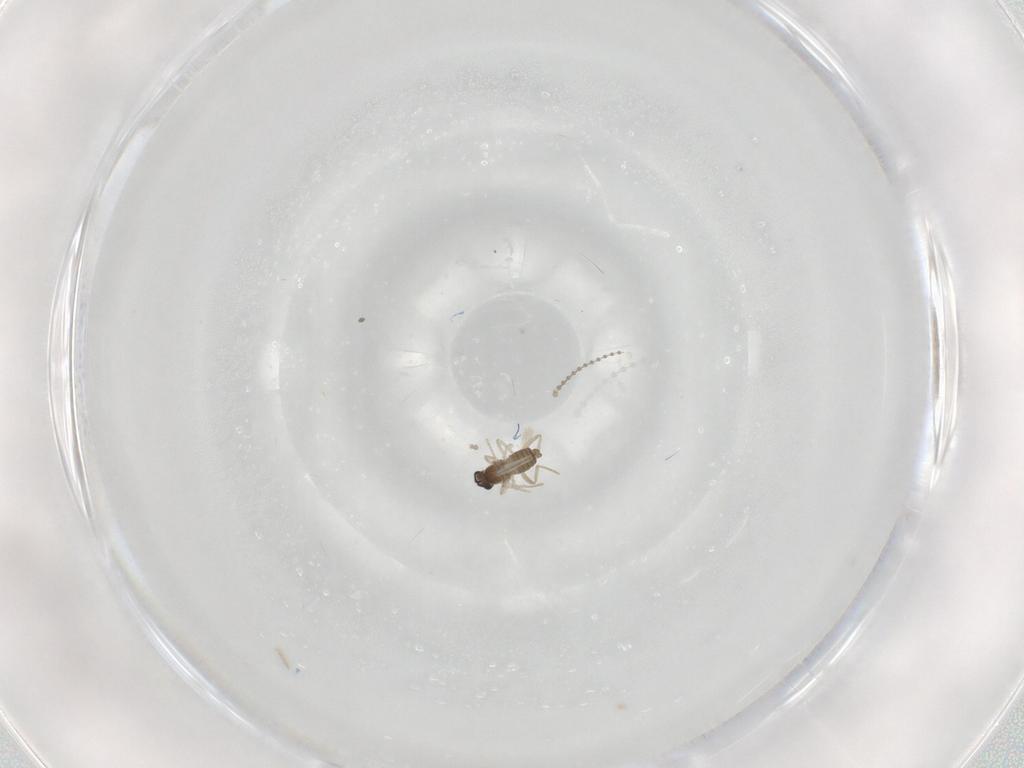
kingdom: Animalia
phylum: Arthropoda
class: Insecta
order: Diptera
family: Cecidomyiidae
